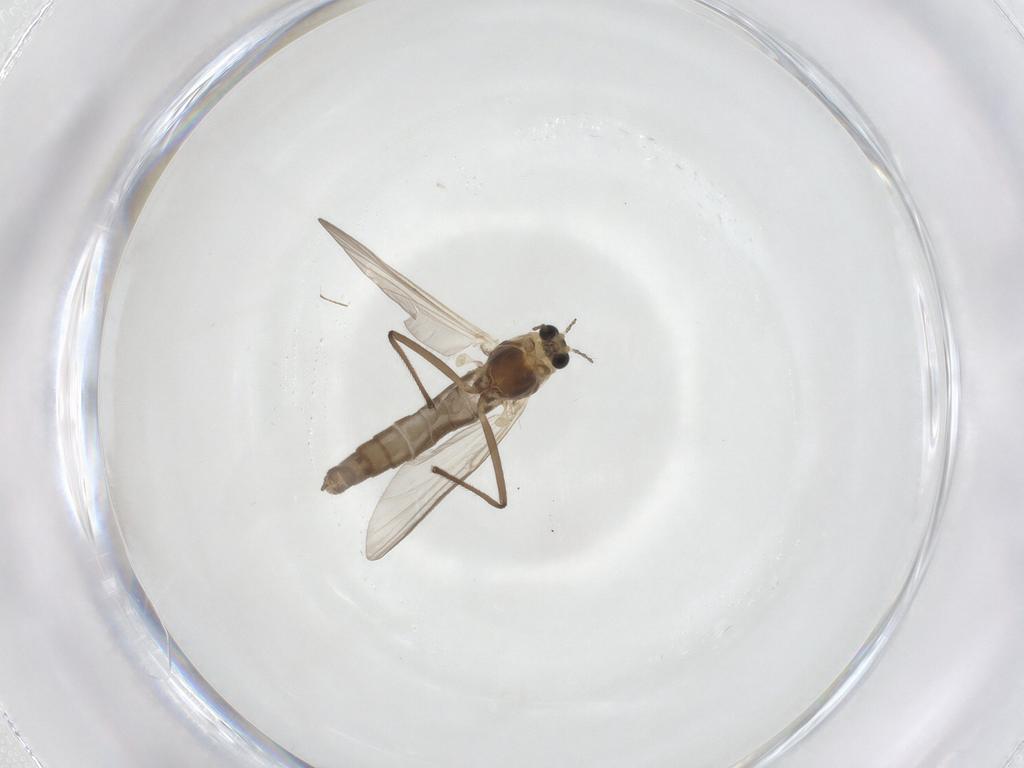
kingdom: Animalia
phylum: Arthropoda
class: Insecta
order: Diptera
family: Chironomidae
